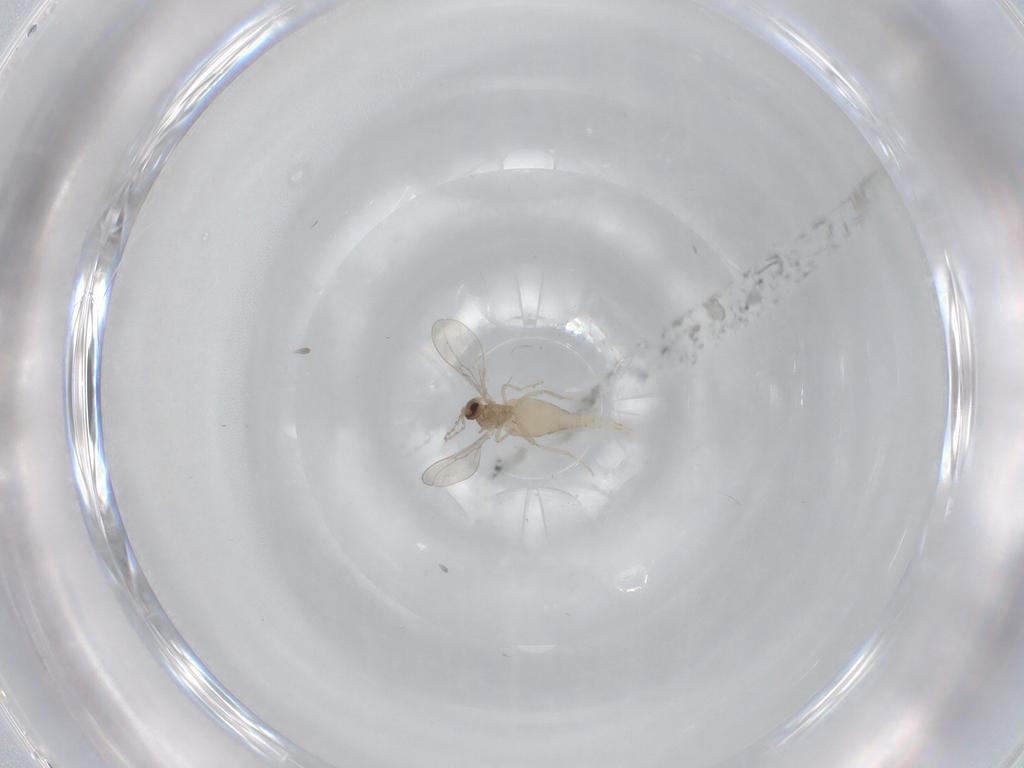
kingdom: Animalia
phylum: Arthropoda
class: Insecta
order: Diptera
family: Cecidomyiidae
